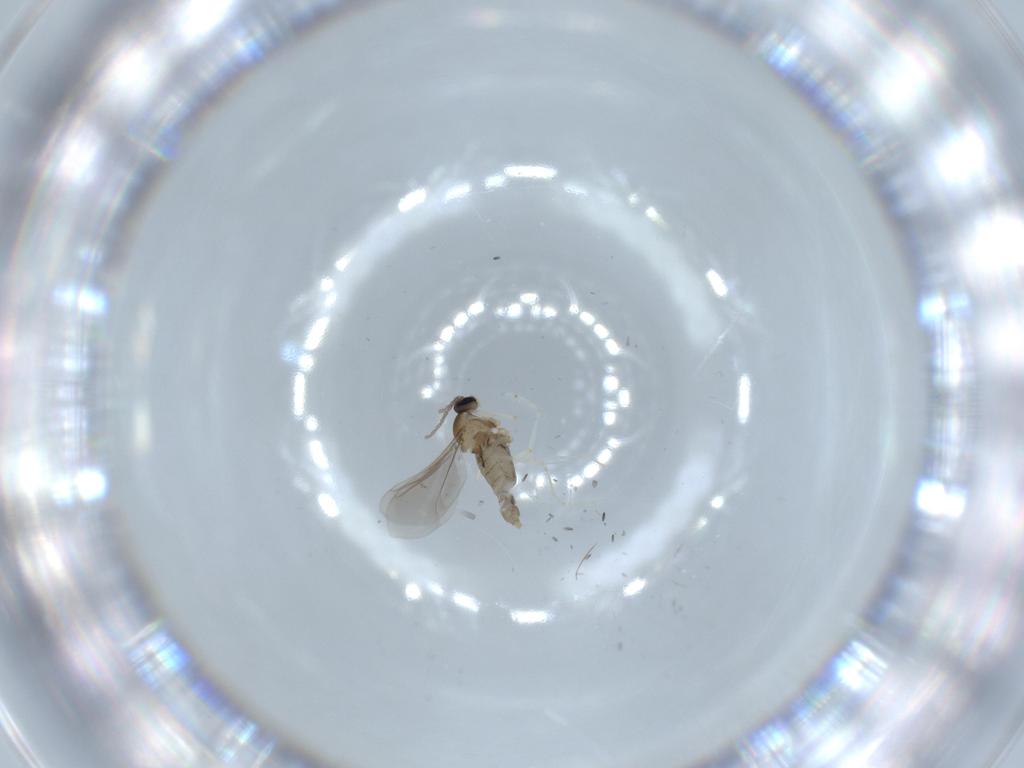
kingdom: Animalia
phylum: Arthropoda
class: Insecta
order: Diptera
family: Cecidomyiidae
